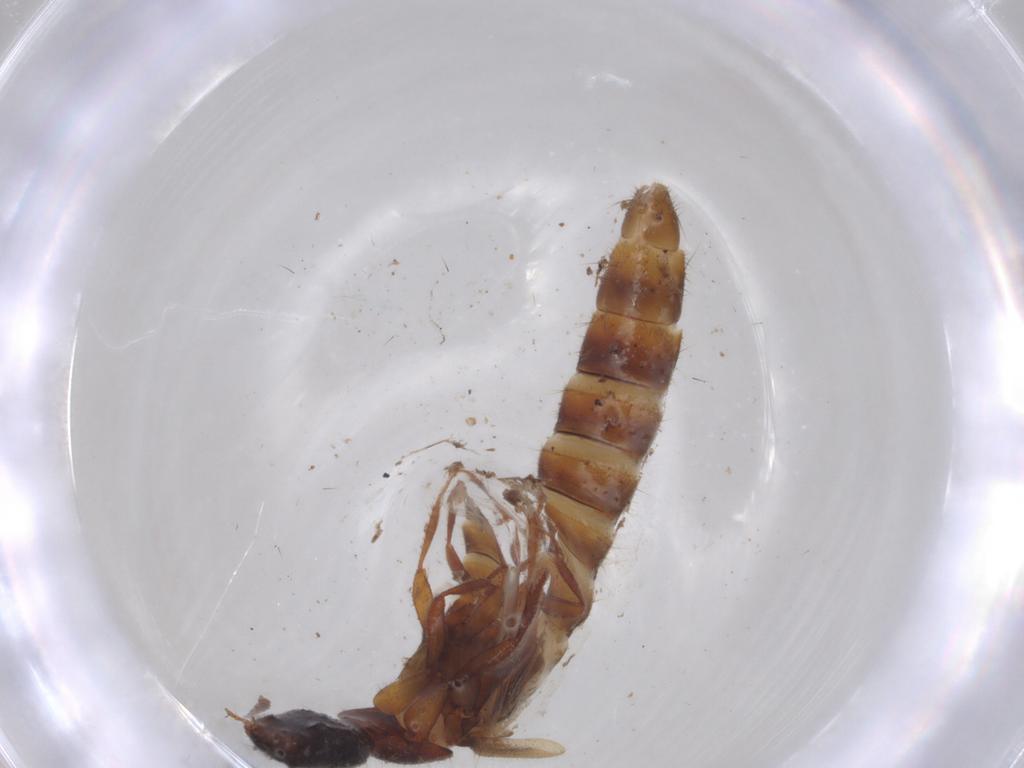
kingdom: Animalia
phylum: Arthropoda
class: Insecta
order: Coleoptera
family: Staphylinidae
